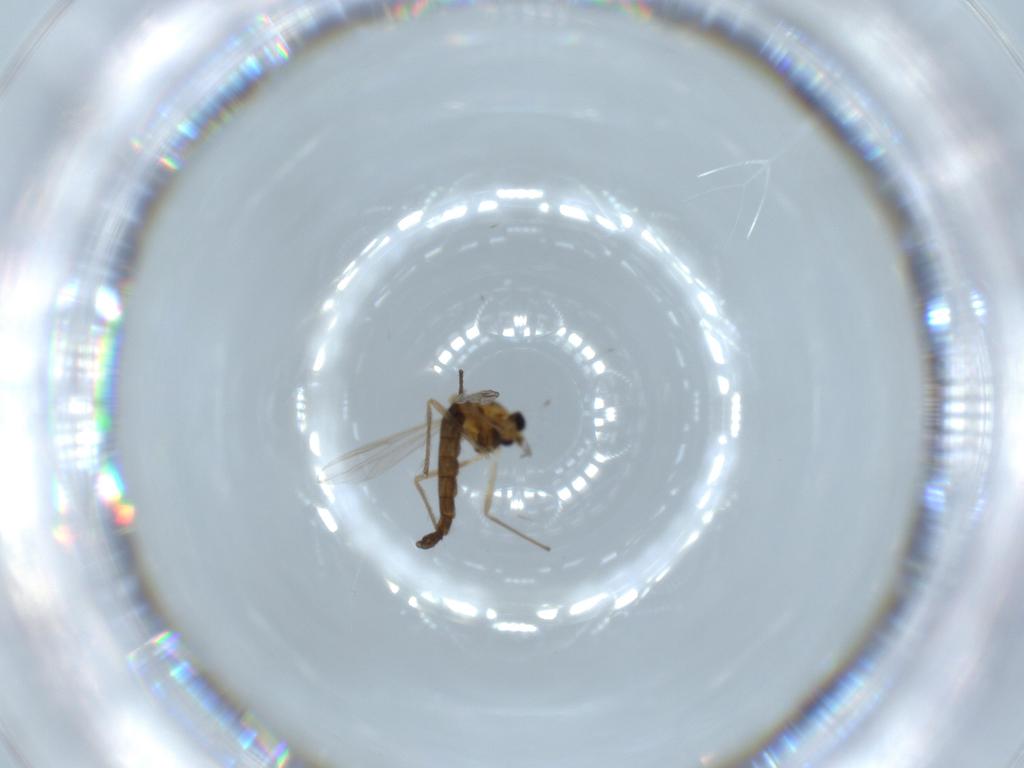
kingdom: Animalia
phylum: Arthropoda
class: Insecta
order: Diptera
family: Chironomidae
